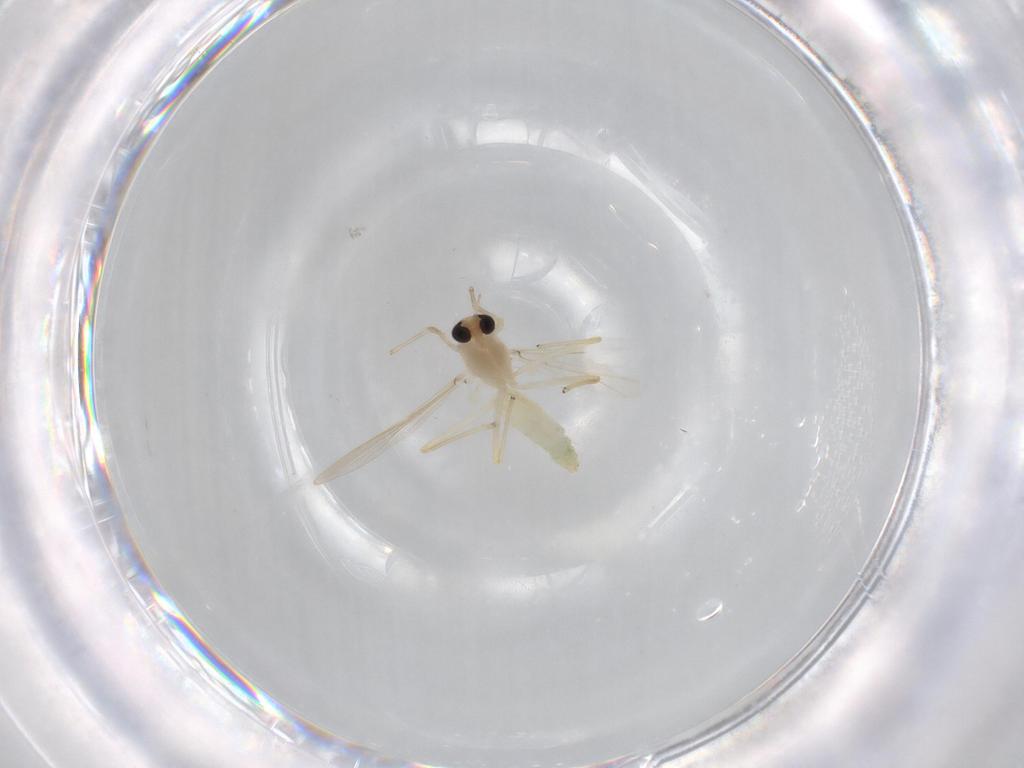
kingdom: Animalia
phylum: Arthropoda
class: Insecta
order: Diptera
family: Chironomidae
